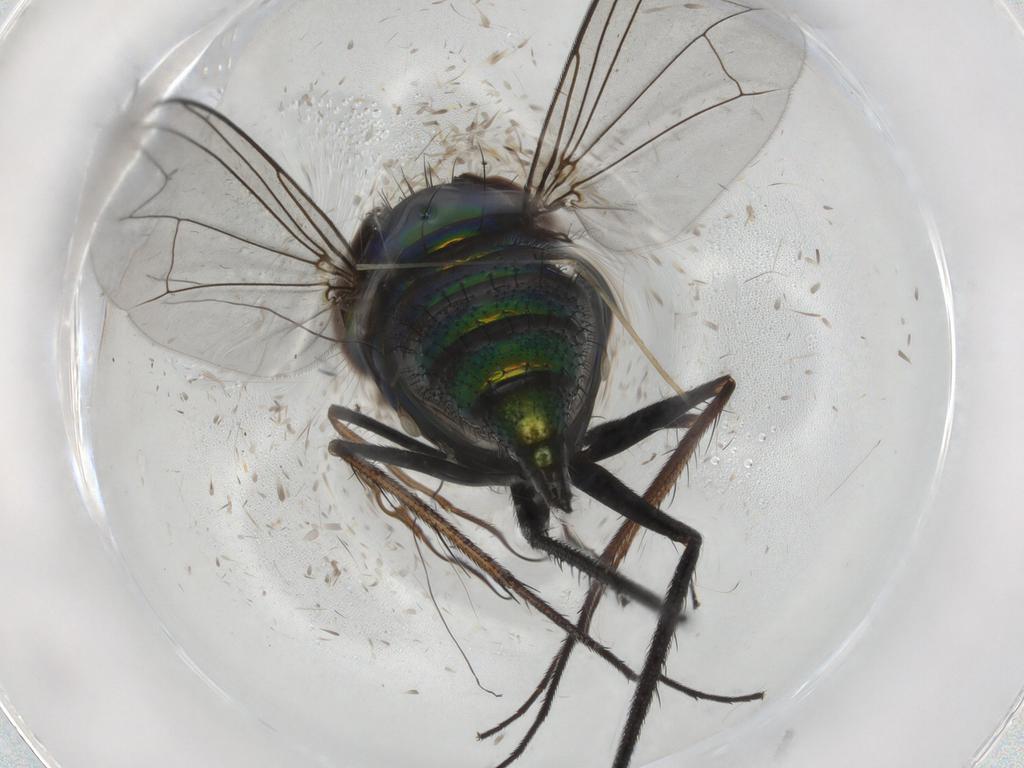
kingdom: Animalia
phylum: Arthropoda
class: Insecta
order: Diptera
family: Dolichopodidae
